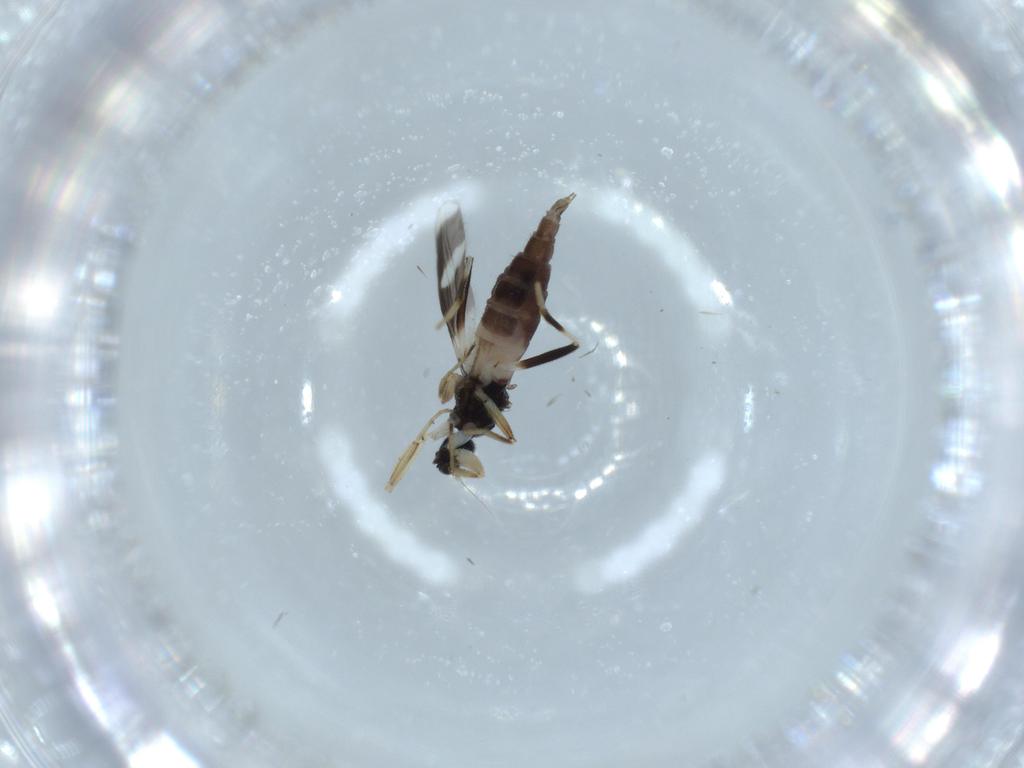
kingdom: Animalia
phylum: Arthropoda
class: Insecta
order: Diptera
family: Hybotidae
